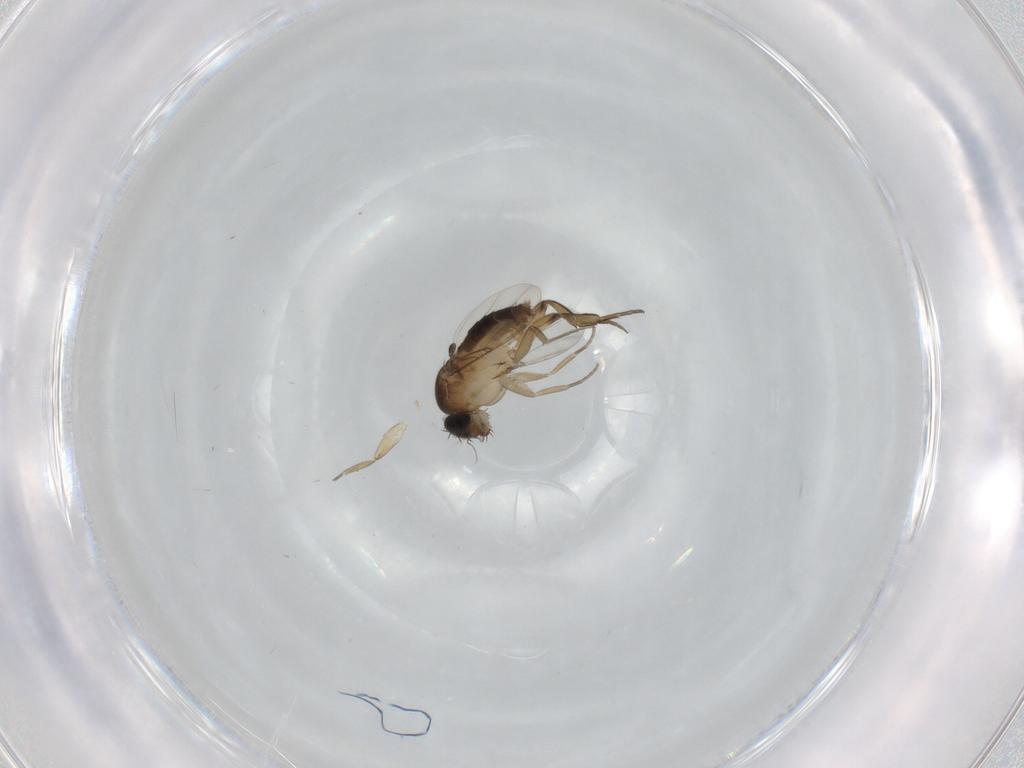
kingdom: Animalia
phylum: Arthropoda
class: Insecta
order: Diptera
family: Phoridae
